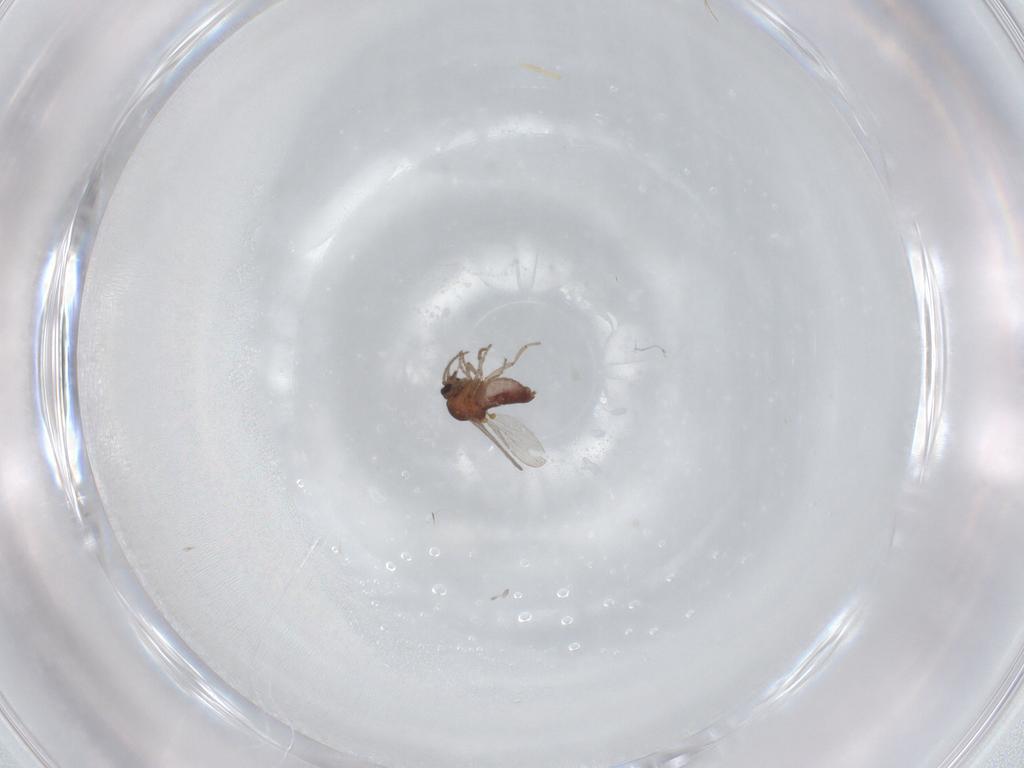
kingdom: Animalia
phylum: Arthropoda
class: Insecta
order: Diptera
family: Ceratopogonidae
